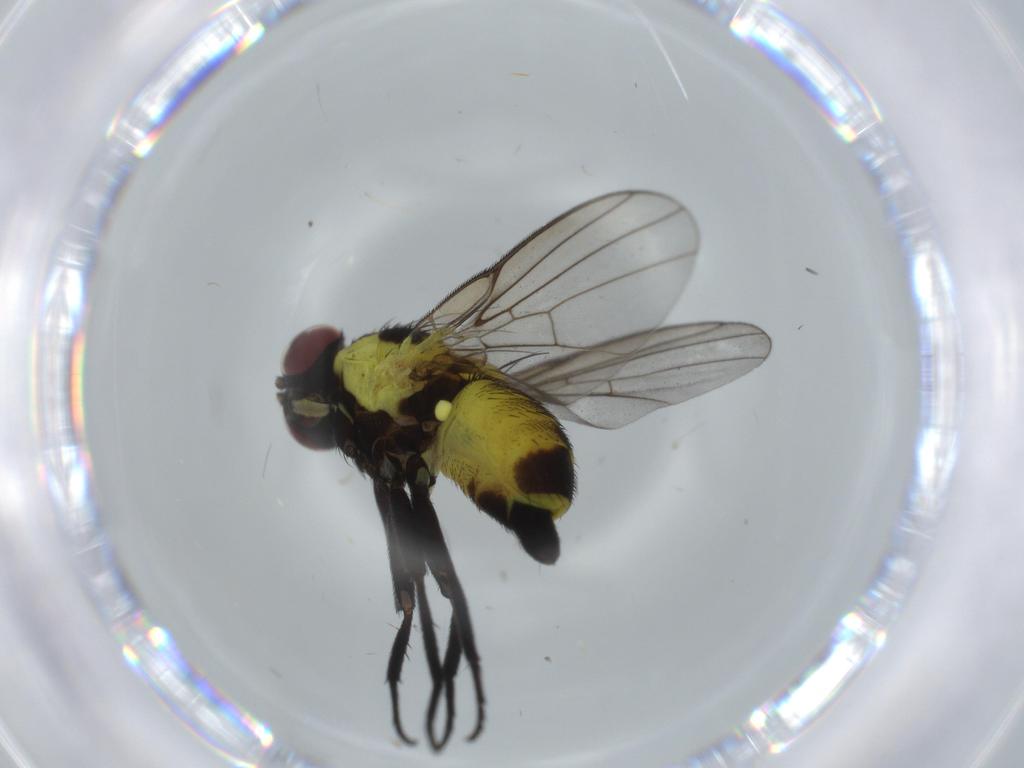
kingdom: Animalia
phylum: Arthropoda
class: Insecta
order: Diptera
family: Agromyzidae
